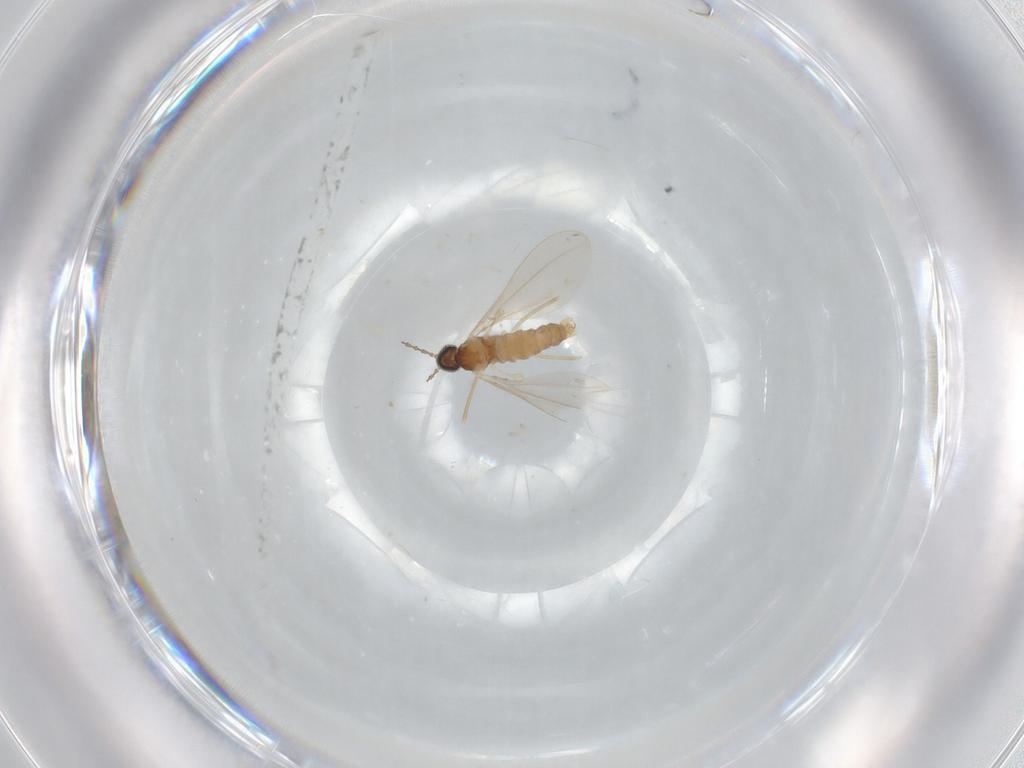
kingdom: Animalia
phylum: Arthropoda
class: Insecta
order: Diptera
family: Cecidomyiidae
